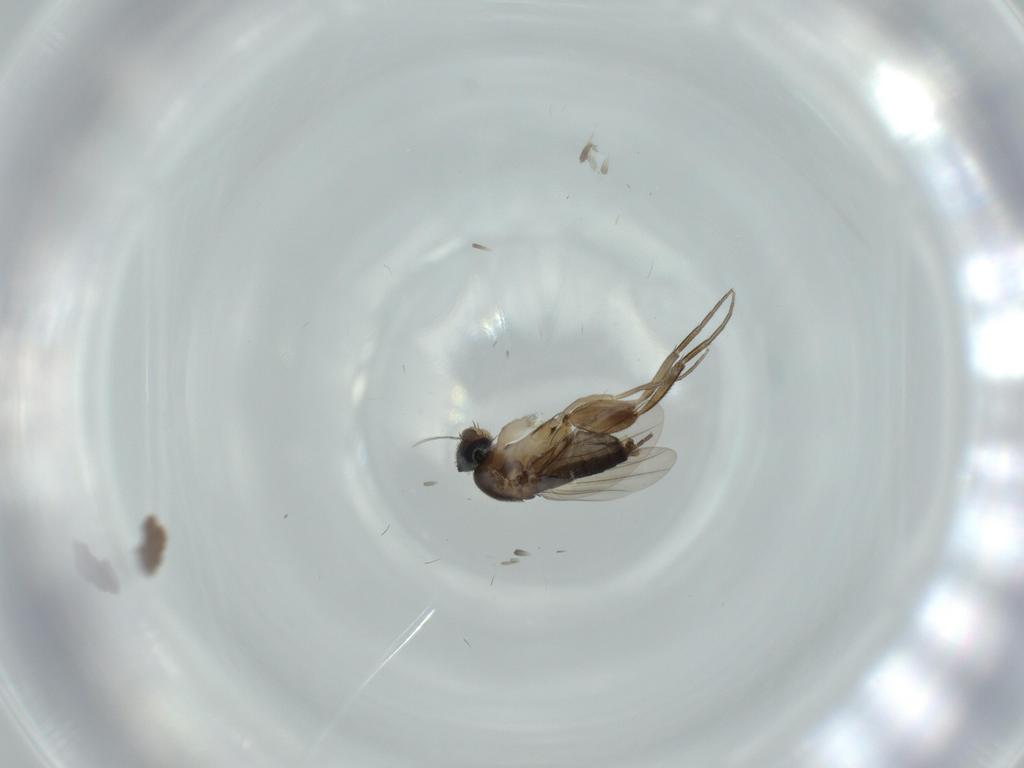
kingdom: Animalia
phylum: Arthropoda
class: Insecta
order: Diptera
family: Phoridae
